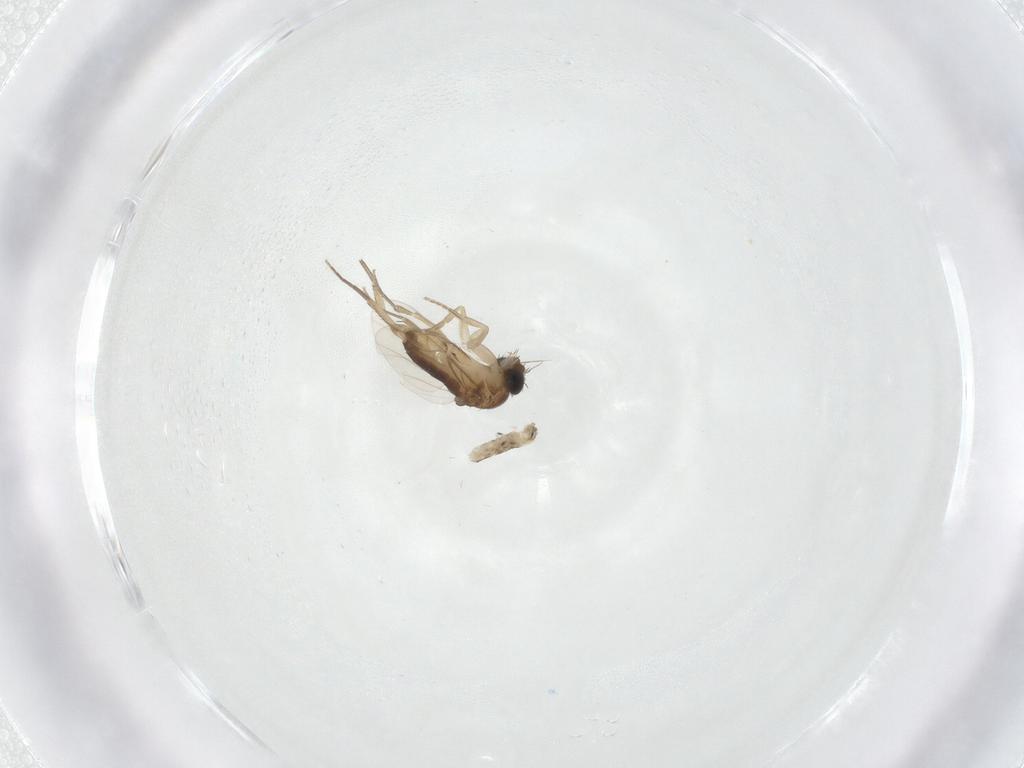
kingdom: Animalia
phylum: Arthropoda
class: Insecta
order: Diptera
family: Phoridae
